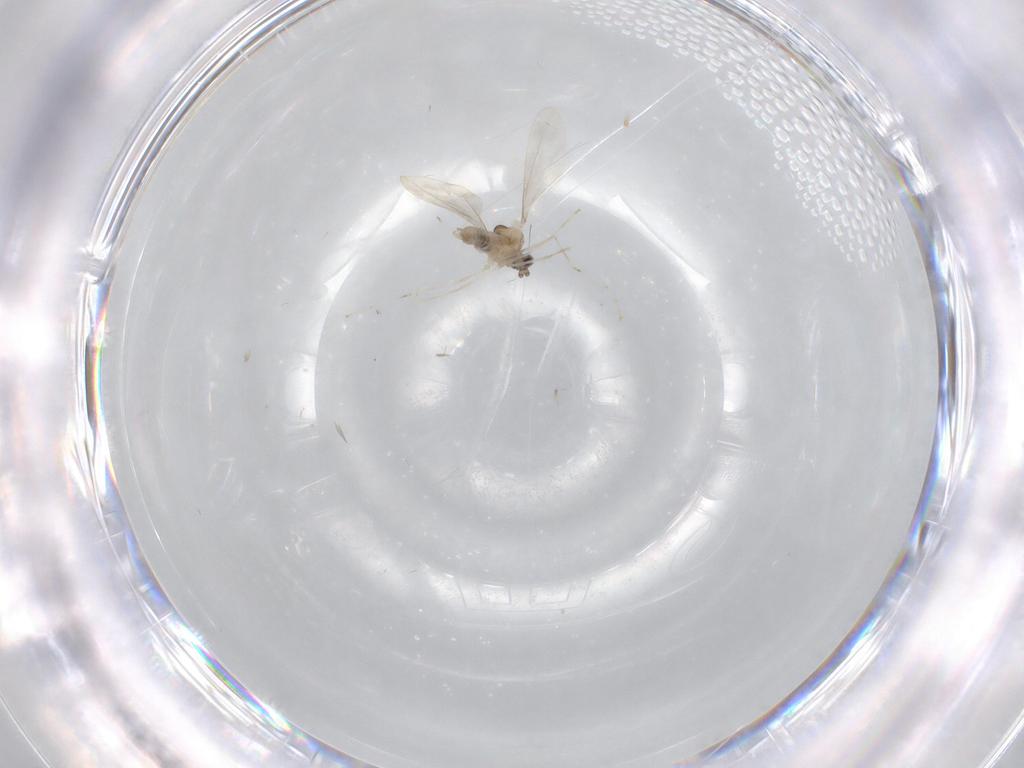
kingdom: Animalia
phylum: Arthropoda
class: Insecta
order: Diptera
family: Cecidomyiidae
